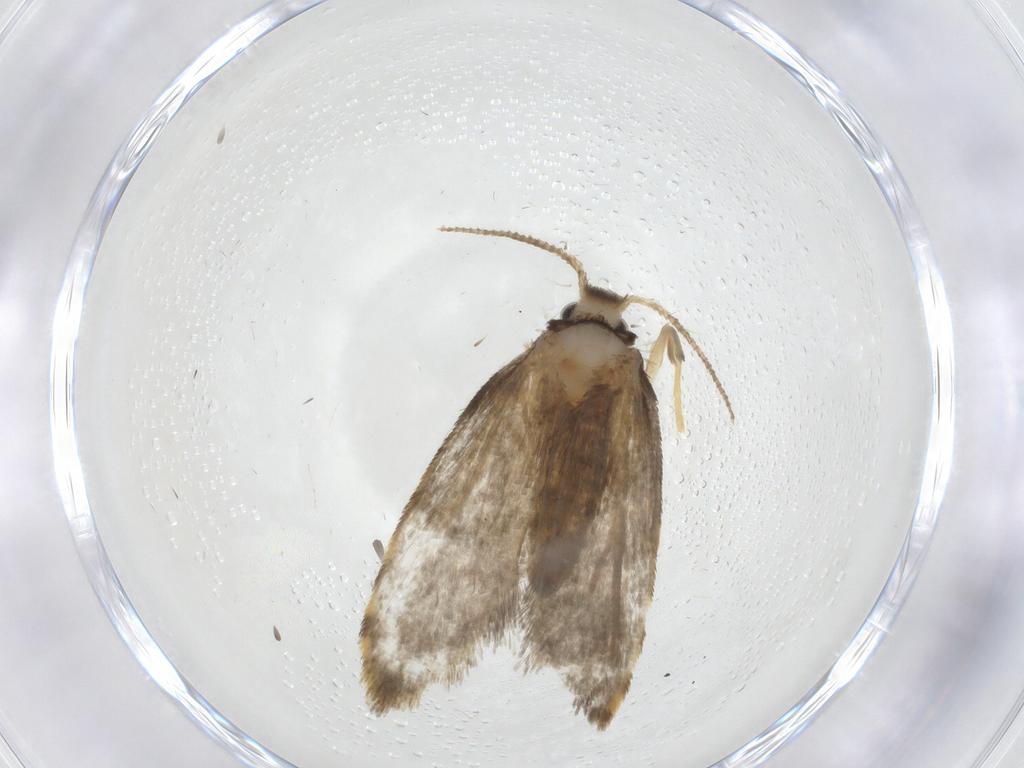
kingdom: Animalia
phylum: Arthropoda
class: Insecta
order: Lepidoptera
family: Psychidae
